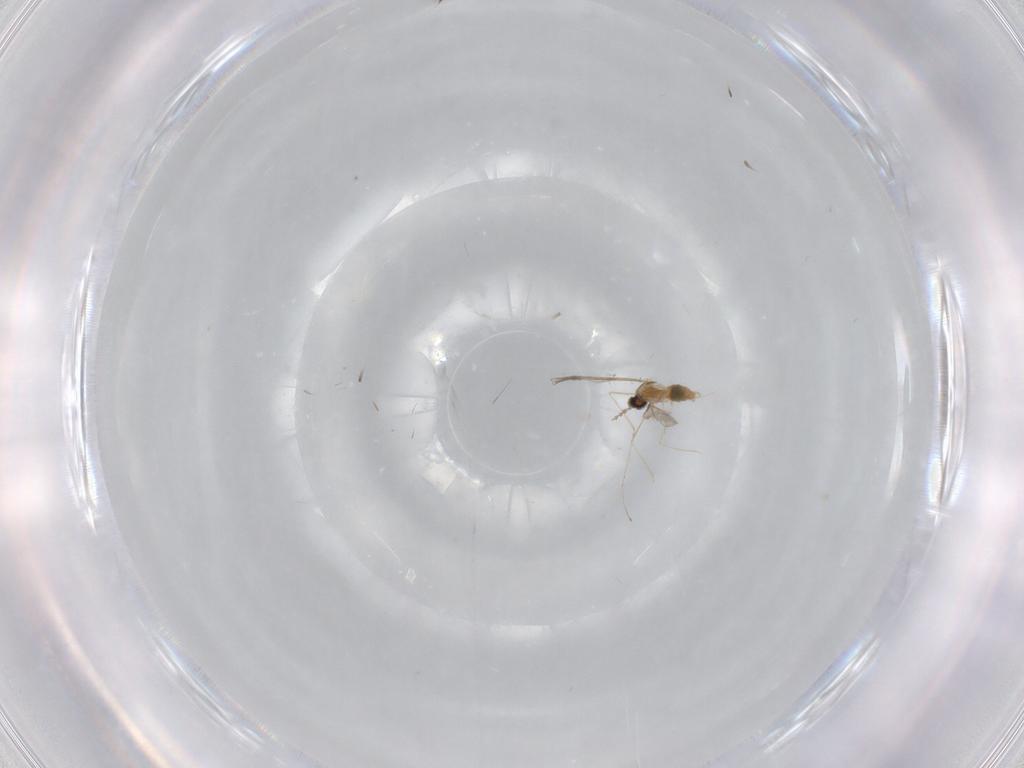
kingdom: Animalia
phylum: Arthropoda
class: Insecta
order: Diptera
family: Cecidomyiidae
